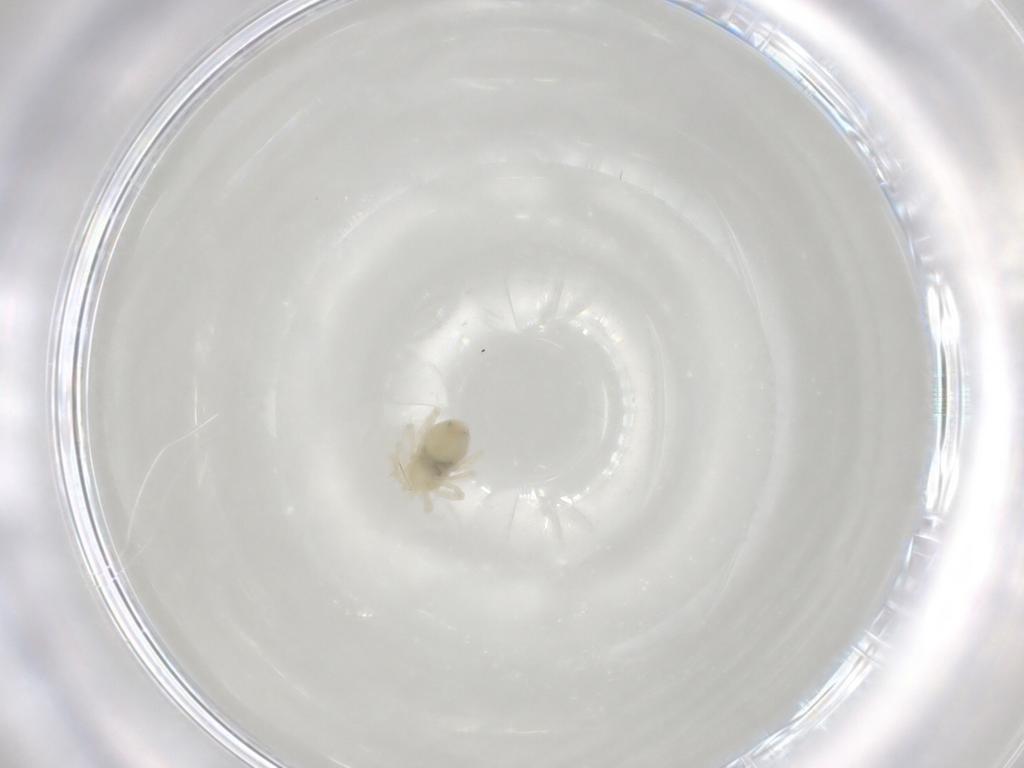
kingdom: Animalia
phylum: Arthropoda
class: Arachnida
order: Trombidiformes
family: Anystidae
